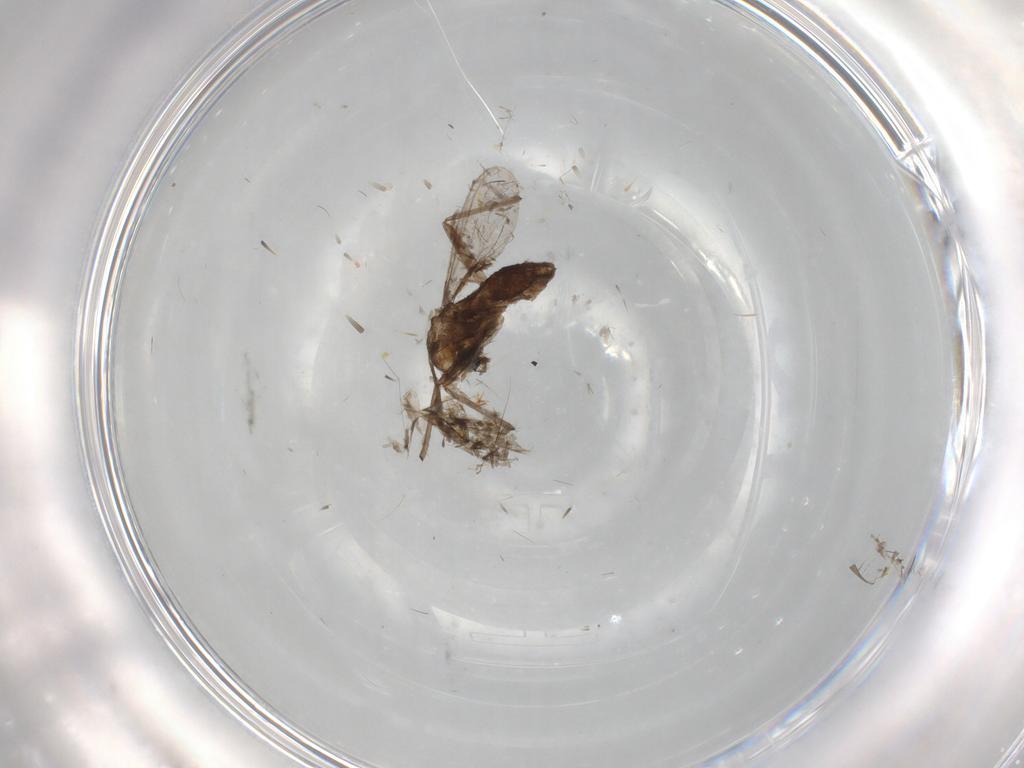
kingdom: Animalia
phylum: Arthropoda
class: Insecta
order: Diptera
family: Chironomidae
